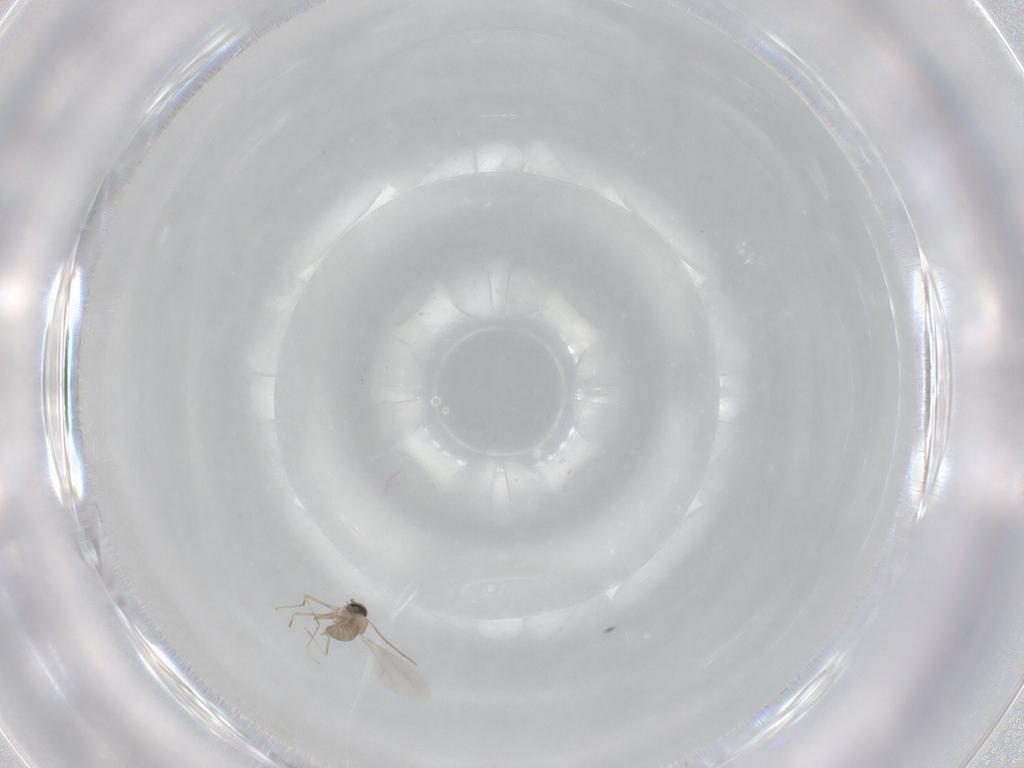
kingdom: Animalia
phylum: Arthropoda
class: Insecta
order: Diptera
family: Cecidomyiidae
